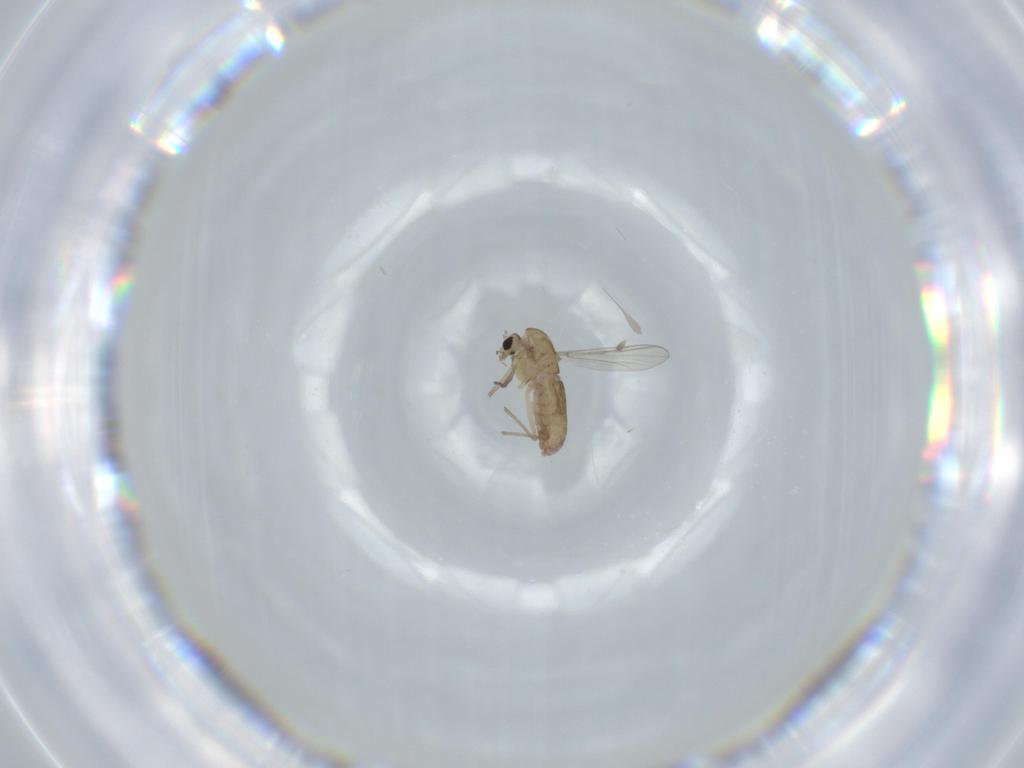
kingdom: Animalia
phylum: Arthropoda
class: Insecta
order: Diptera
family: Chironomidae
